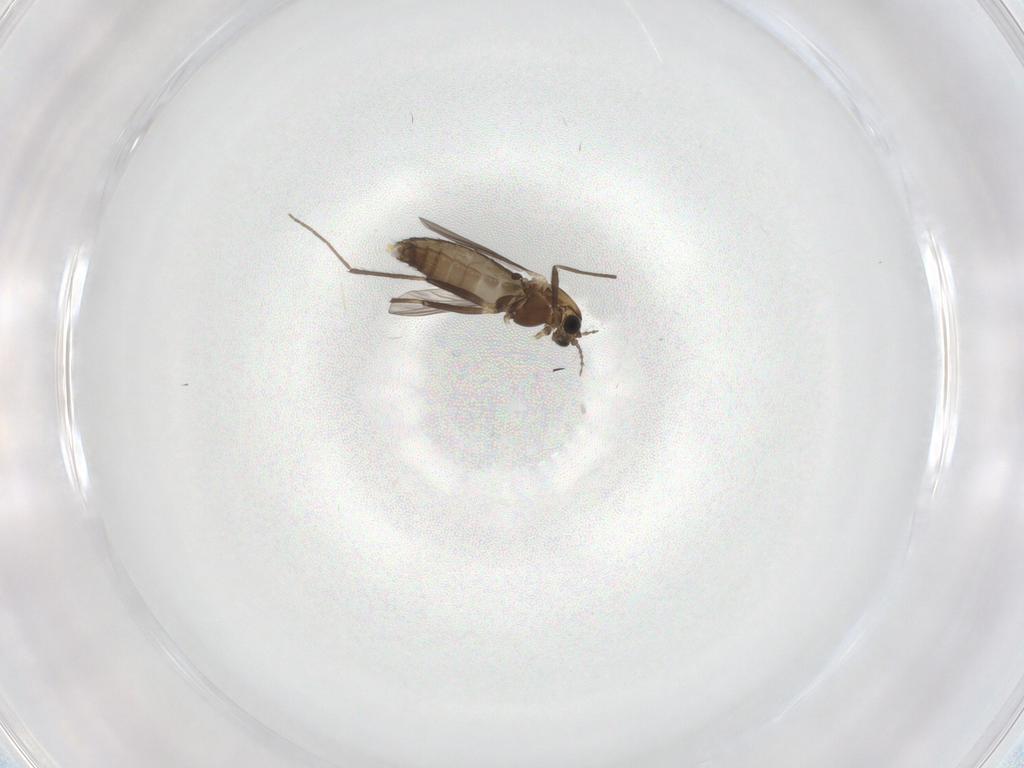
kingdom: Animalia
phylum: Arthropoda
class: Insecta
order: Diptera
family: Chironomidae
